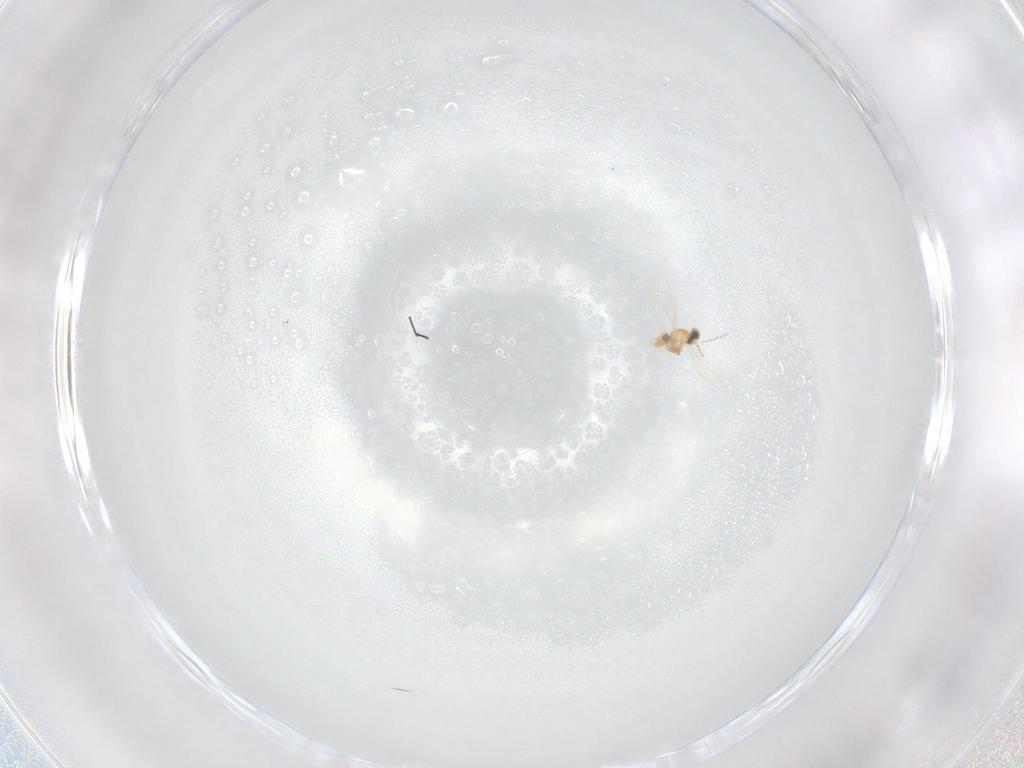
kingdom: Animalia
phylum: Arthropoda
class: Insecta
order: Diptera
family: Cecidomyiidae
